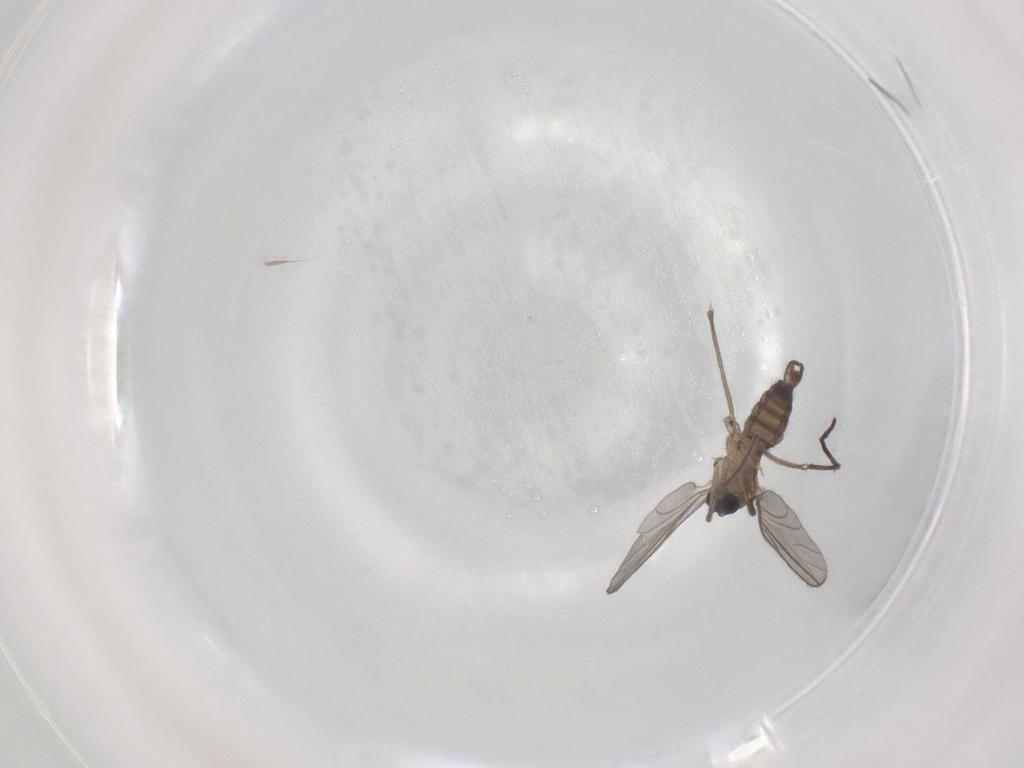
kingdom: Animalia
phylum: Arthropoda
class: Insecta
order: Diptera
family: Sciaridae
